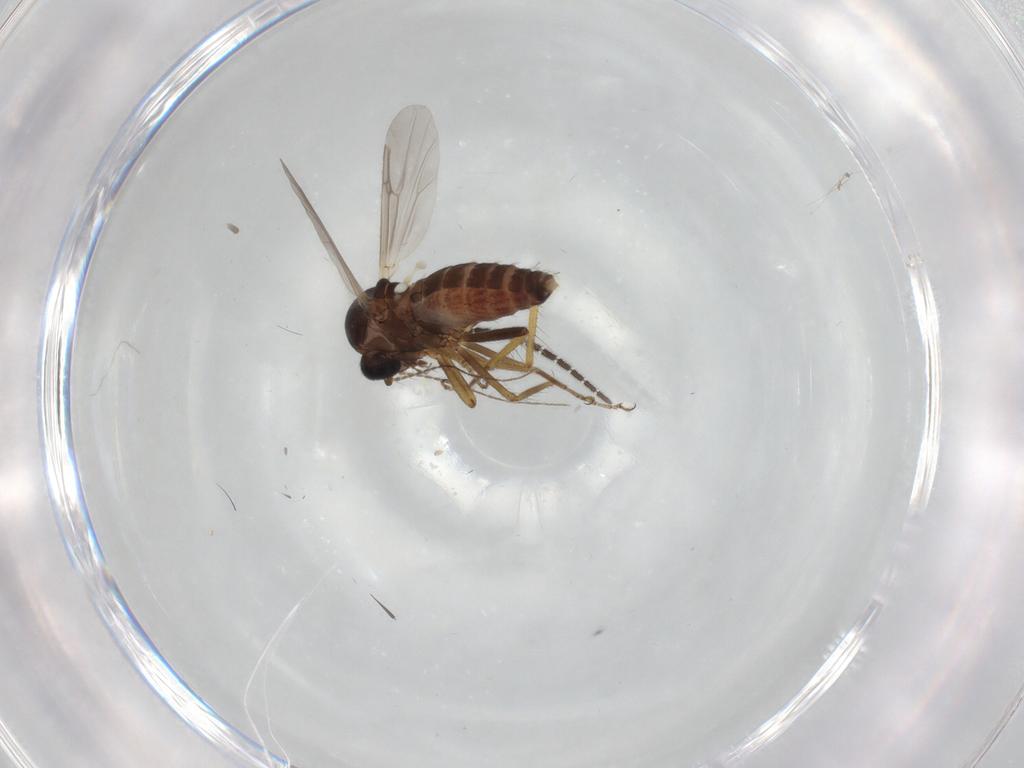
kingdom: Animalia
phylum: Arthropoda
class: Insecta
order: Diptera
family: Ceratopogonidae
